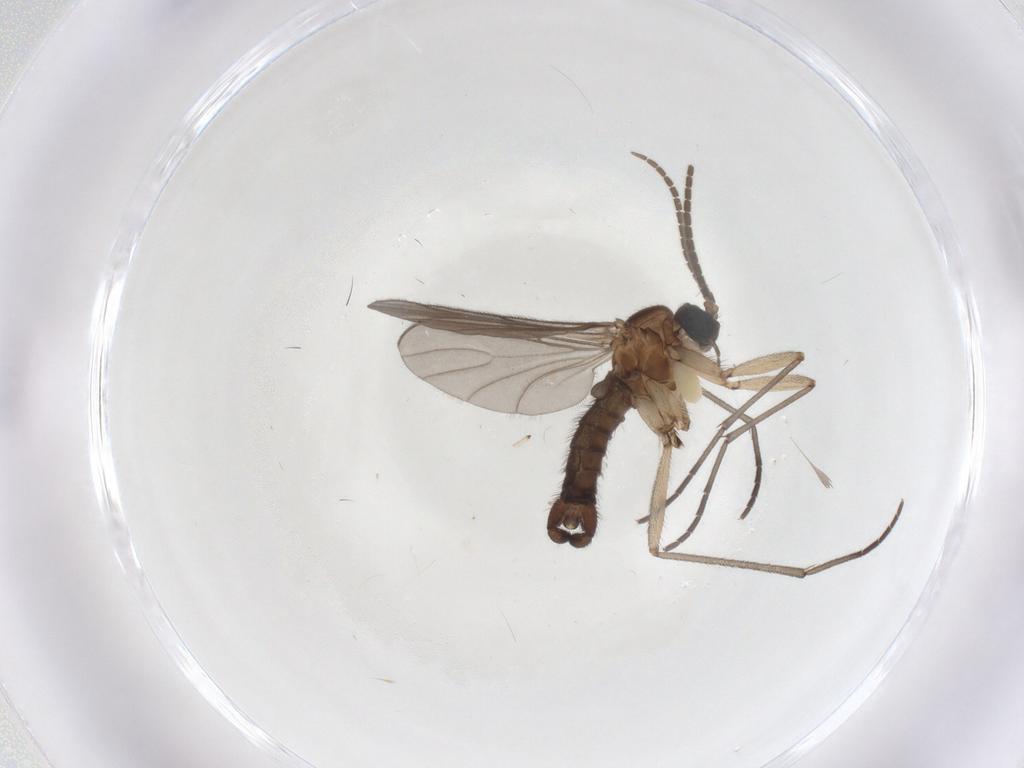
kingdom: Animalia
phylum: Arthropoda
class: Insecta
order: Diptera
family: Sciaridae
